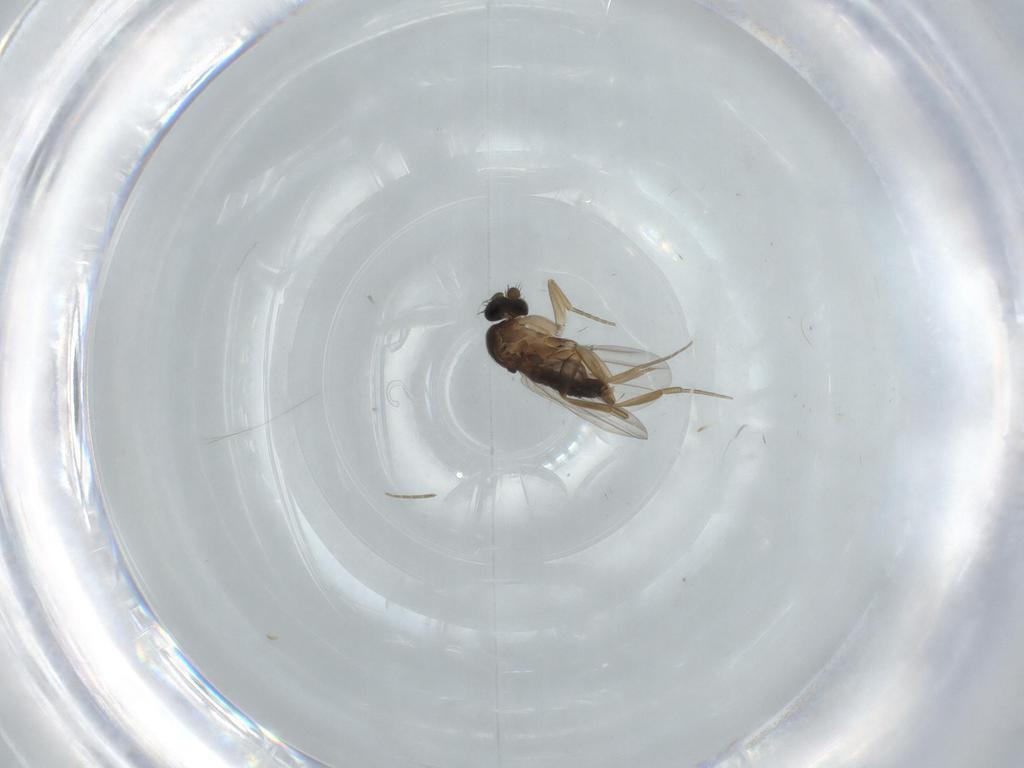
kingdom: Animalia
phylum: Arthropoda
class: Insecta
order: Diptera
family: Phoridae
